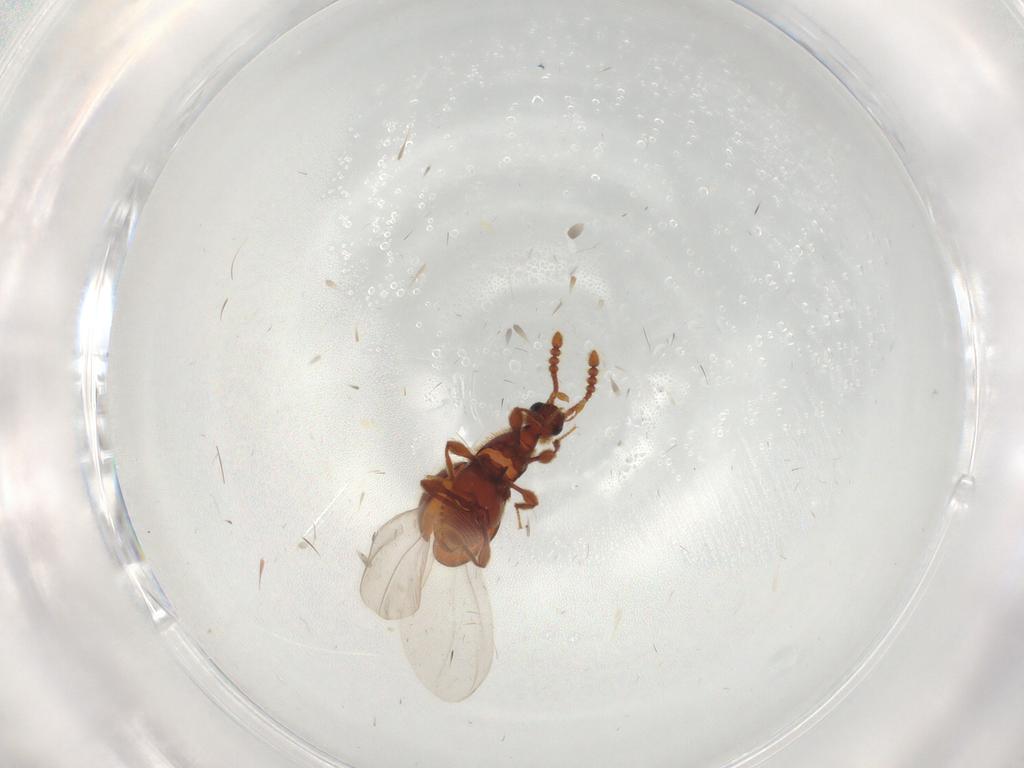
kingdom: Animalia
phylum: Arthropoda
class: Insecta
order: Coleoptera
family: Staphylinidae
